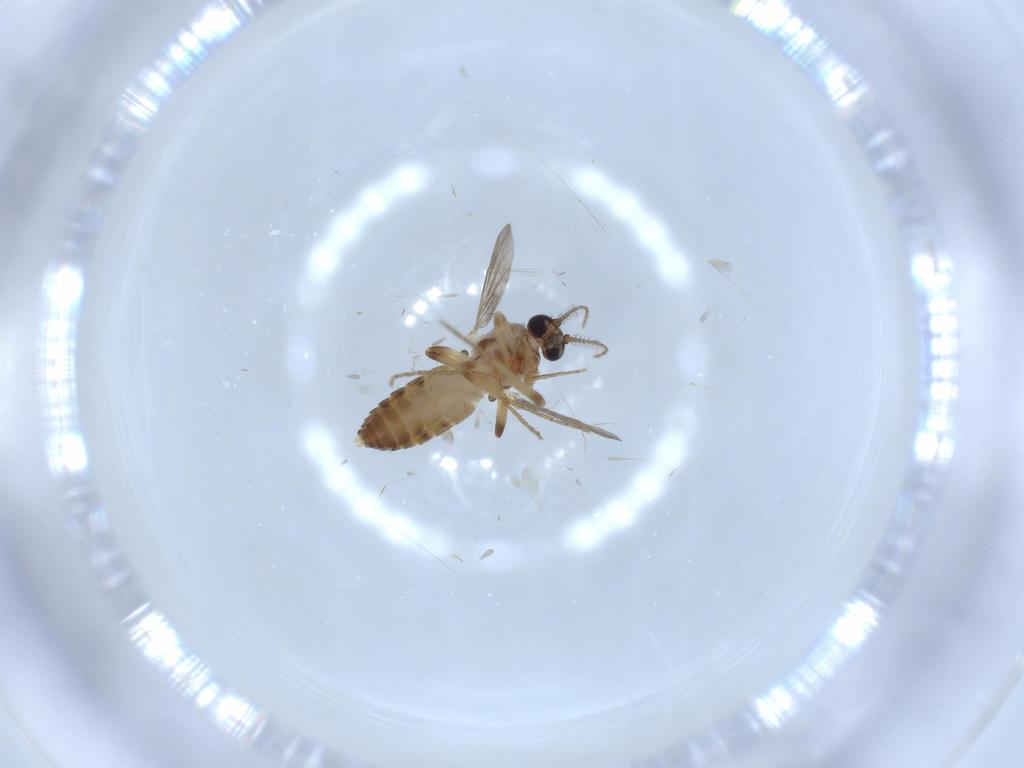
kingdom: Animalia
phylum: Arthropoda
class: Insecta
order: Diptera
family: Ceratopogonidae
